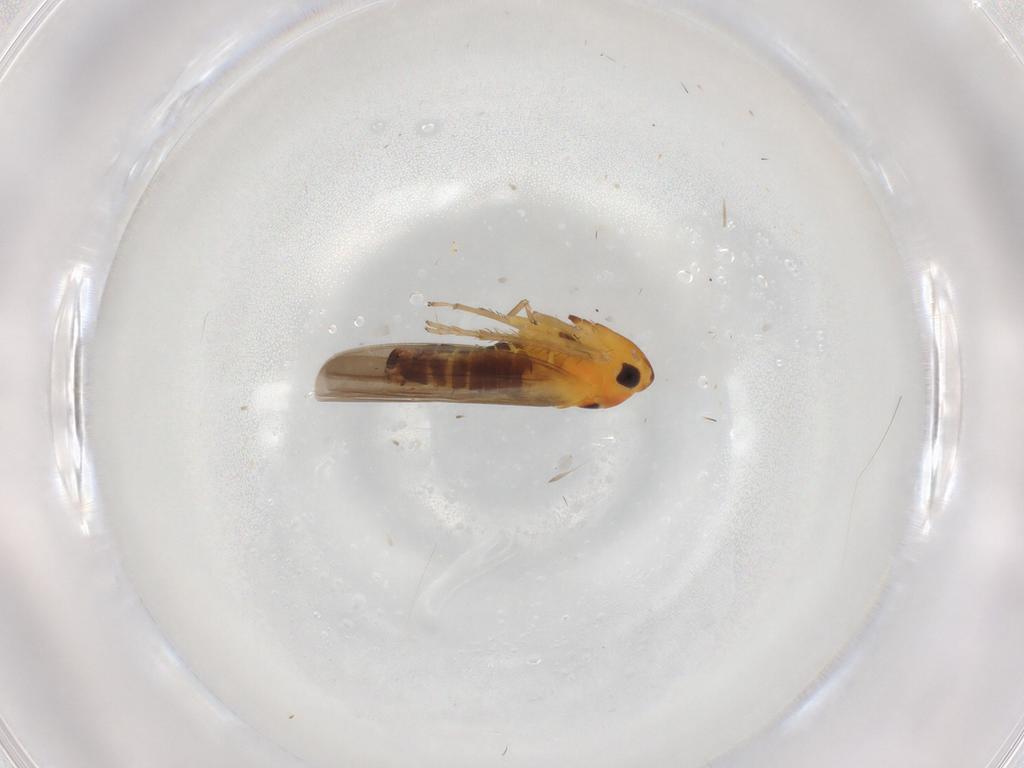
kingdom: Animalia
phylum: Arthropoda
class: Insecta
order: Hemiptera
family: Cicadellidae
